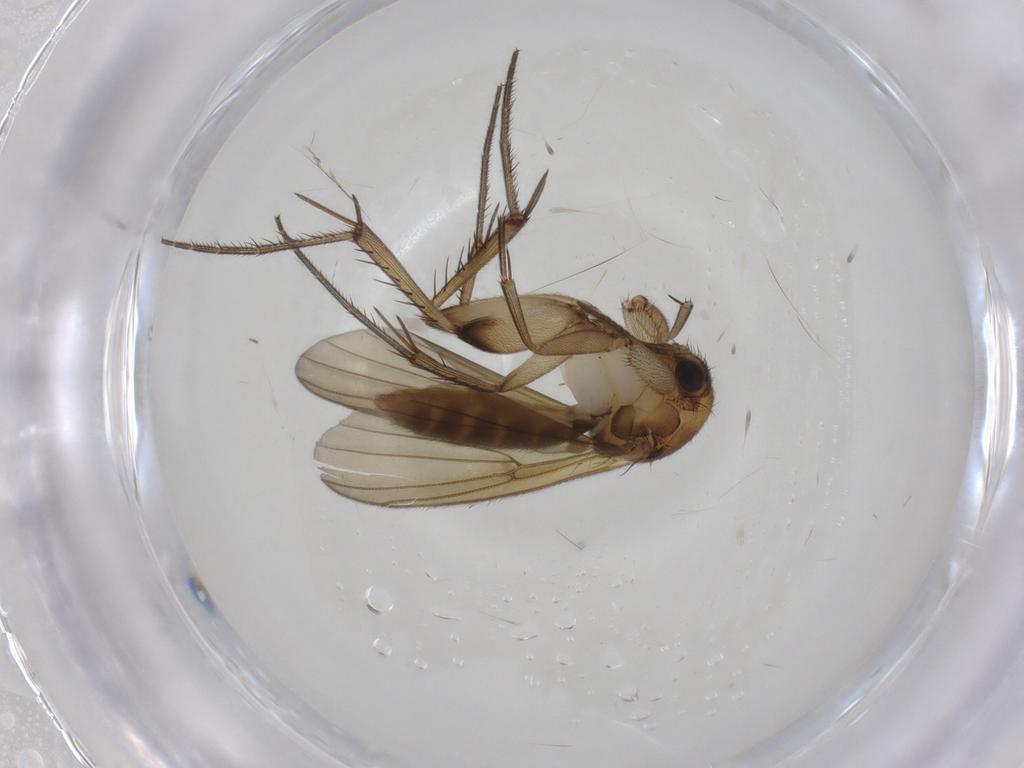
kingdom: Animalia
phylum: Arthropoda
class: Insecta
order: Diptera
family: Mycetophilidae
